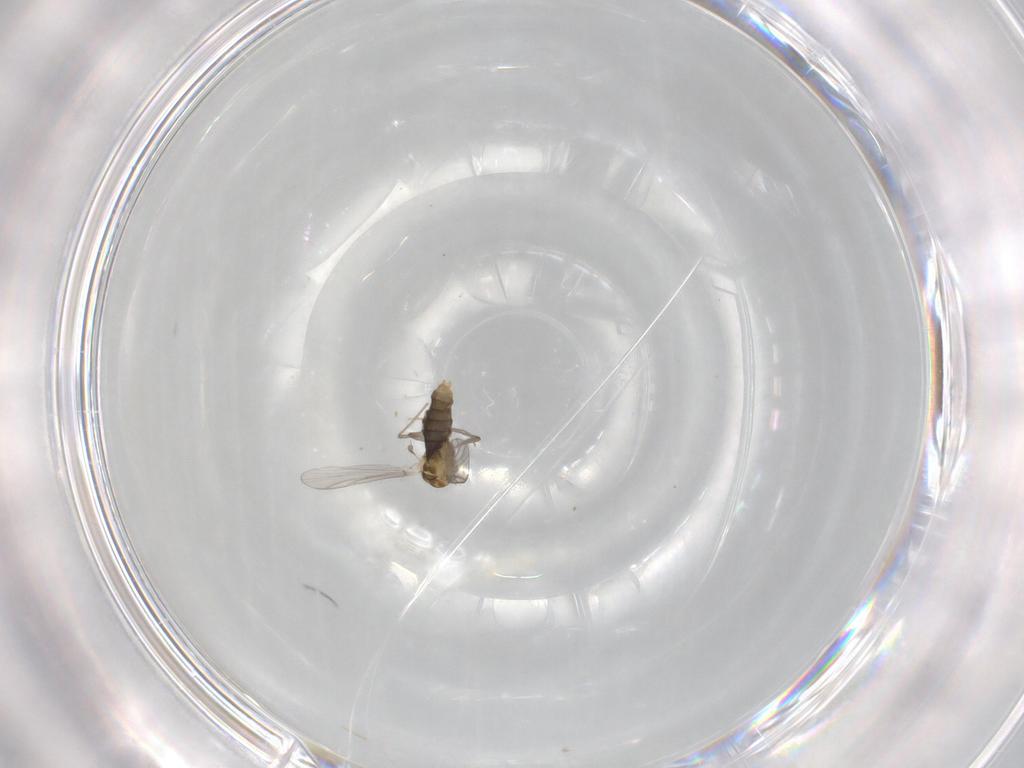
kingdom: Animalia
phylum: Arthropoda
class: Insecta
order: Diptera
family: Chironomidae
